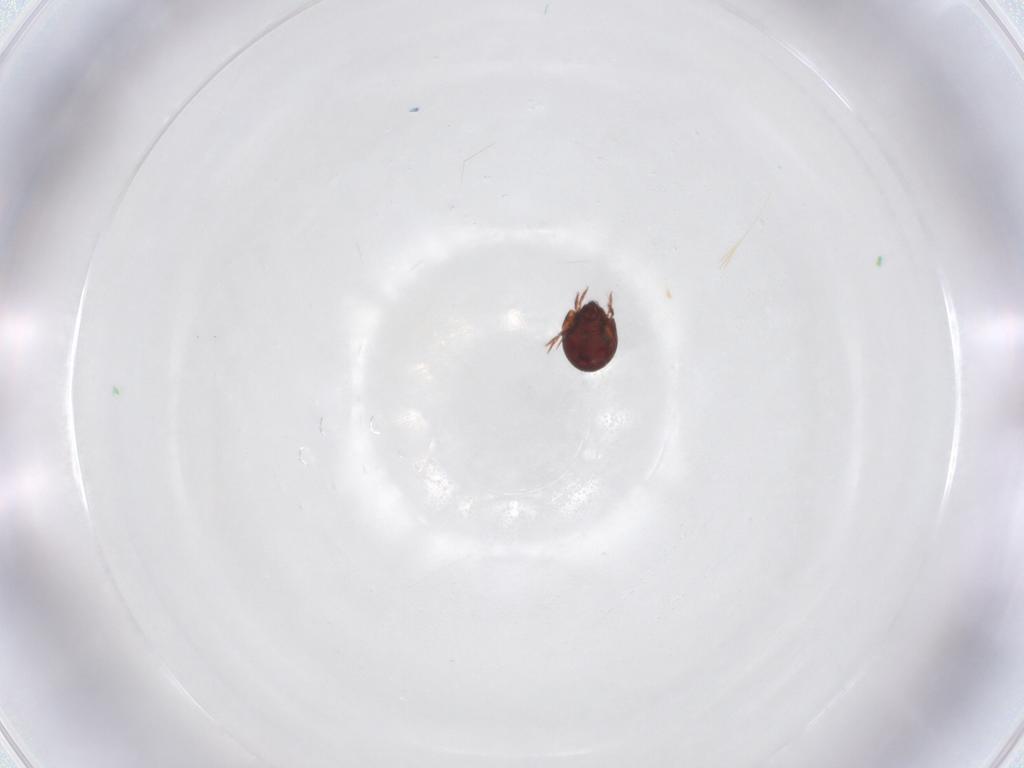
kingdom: Animalia
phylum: Arthropoda
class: Arachnida
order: Sarcoptiformes
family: Humerobatidae
